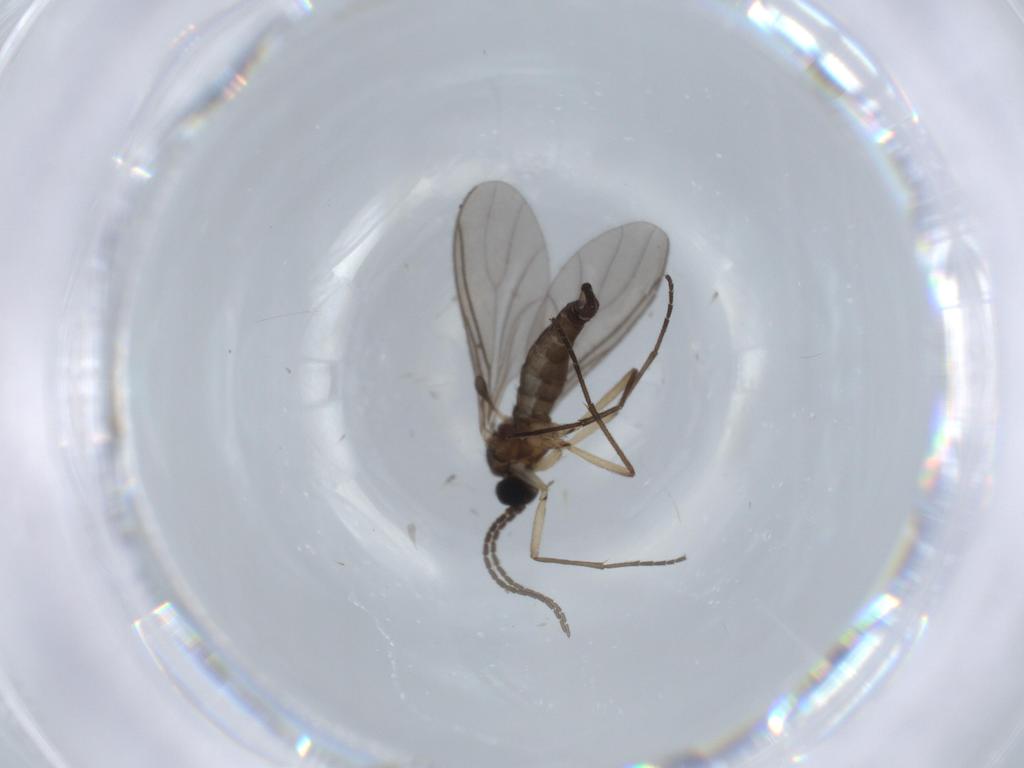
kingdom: Animalia
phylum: Arthropoda
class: Insecta
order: Diptera
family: Sciaridae
